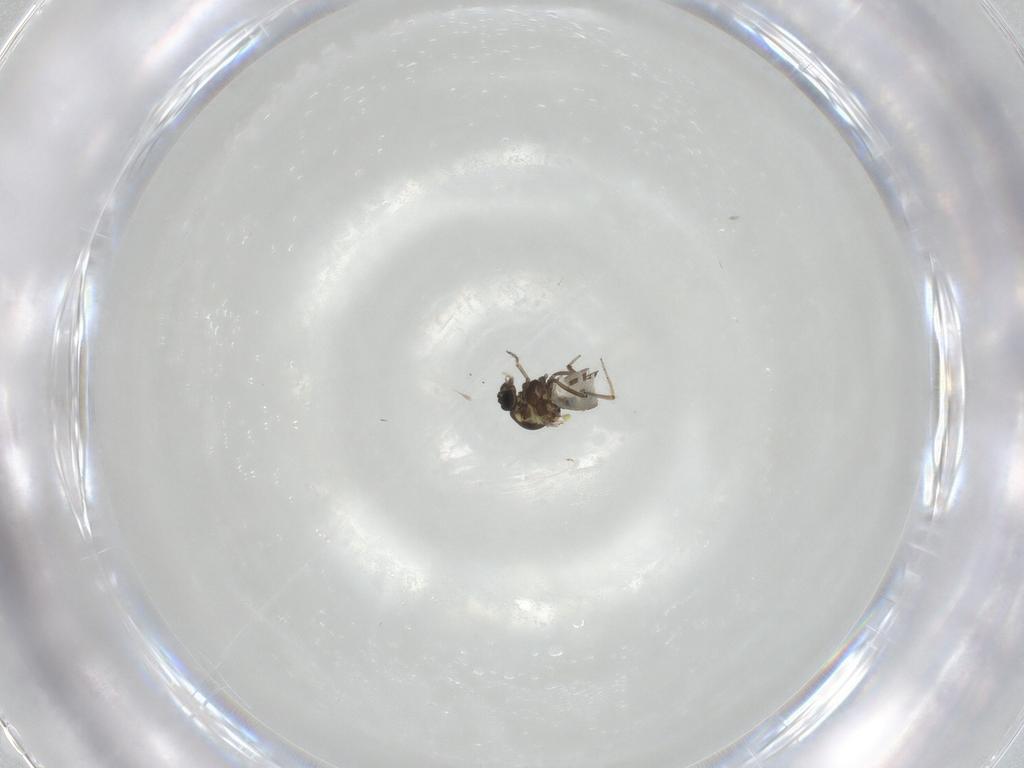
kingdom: Animalia
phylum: Arthropoda
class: Insecta
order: Diptera
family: Ceratopogonidae
